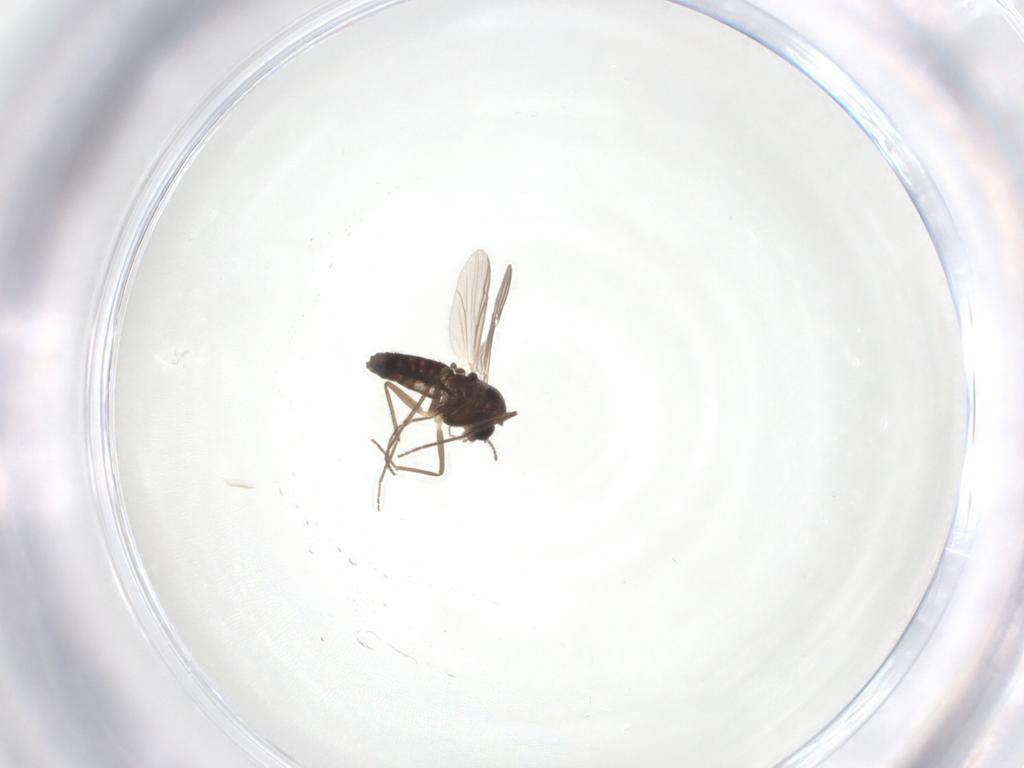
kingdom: Animalia
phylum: Arthropoda
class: Insecta
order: Diptera
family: Chironomidae
